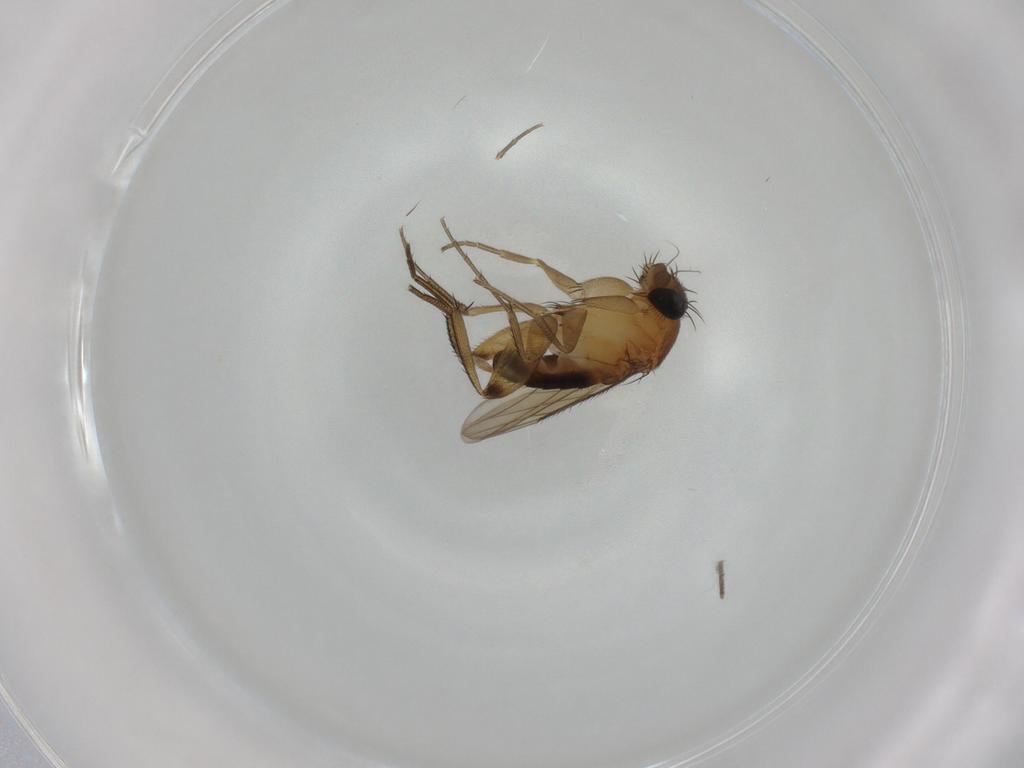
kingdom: Animalia
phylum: Arthropoda
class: Insecta
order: Diptera
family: Phoridae
